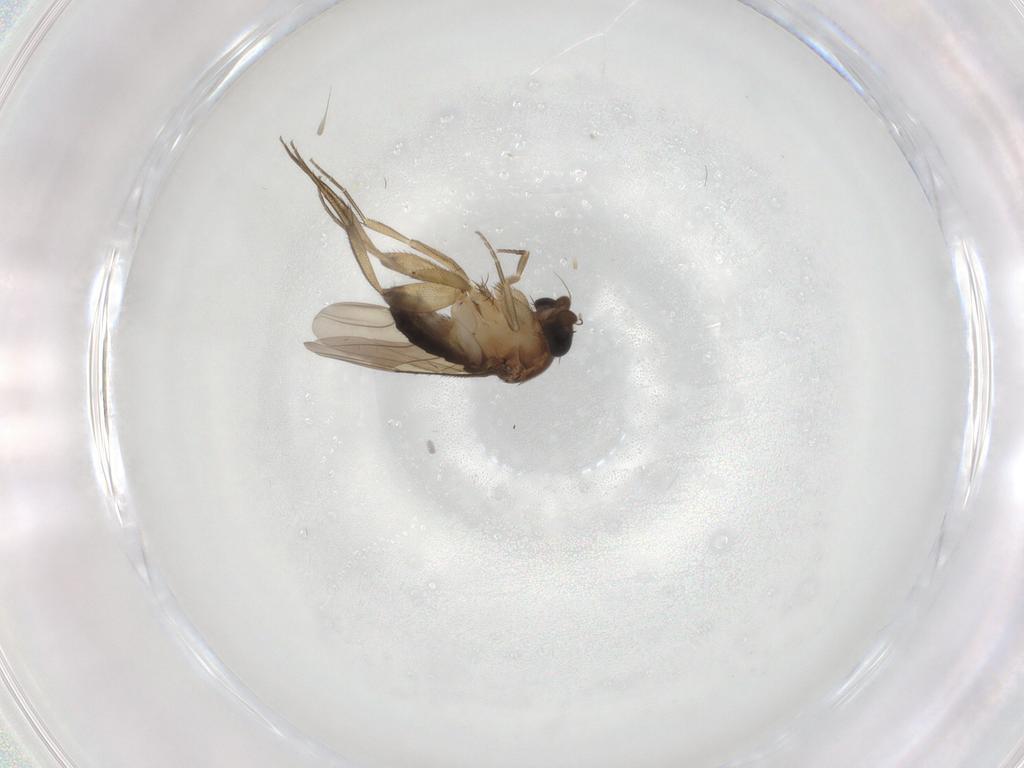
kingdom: Animalia
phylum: Arthropoda
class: Insecta
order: Diptera
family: Phoridae
